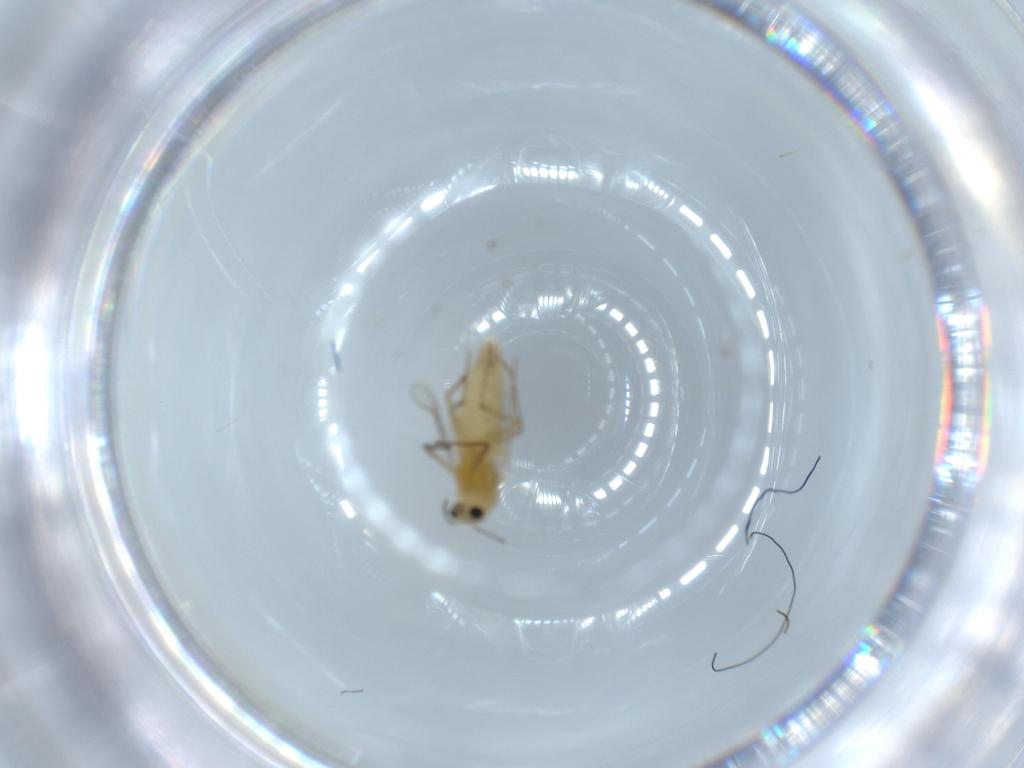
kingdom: Animalia
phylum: Arthropoda
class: Insecta
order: Diptera
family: Chironomidae
